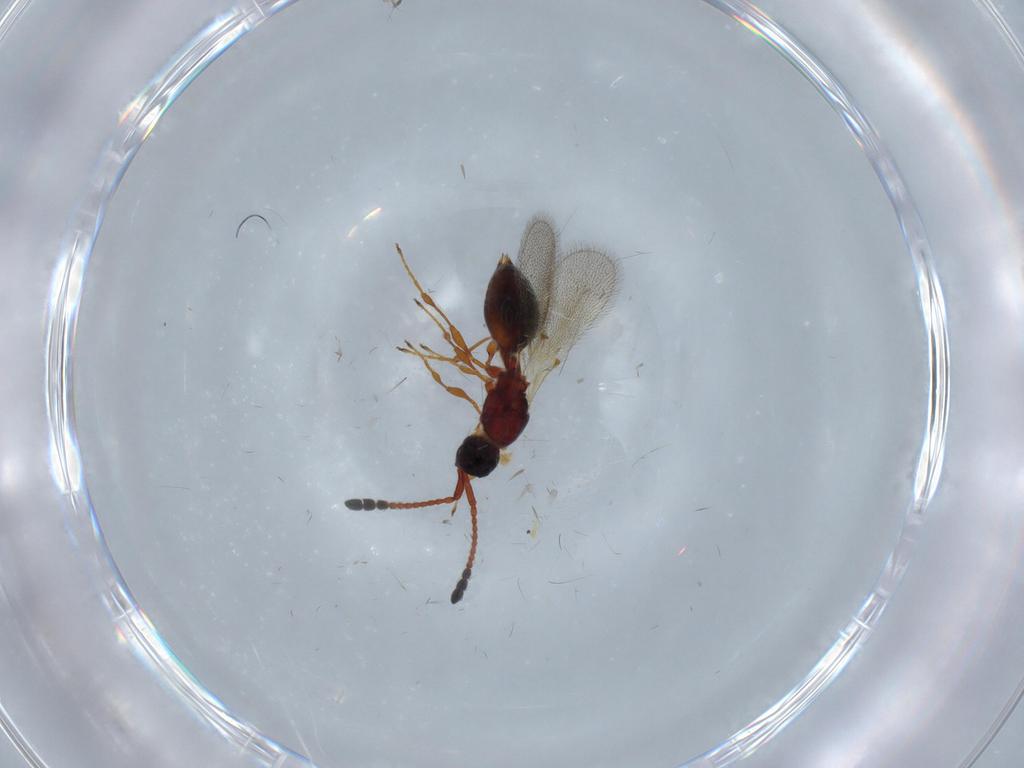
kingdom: Animalia
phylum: Arthropoda
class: Insecta
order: Hymenoptera
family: Diapriidae
